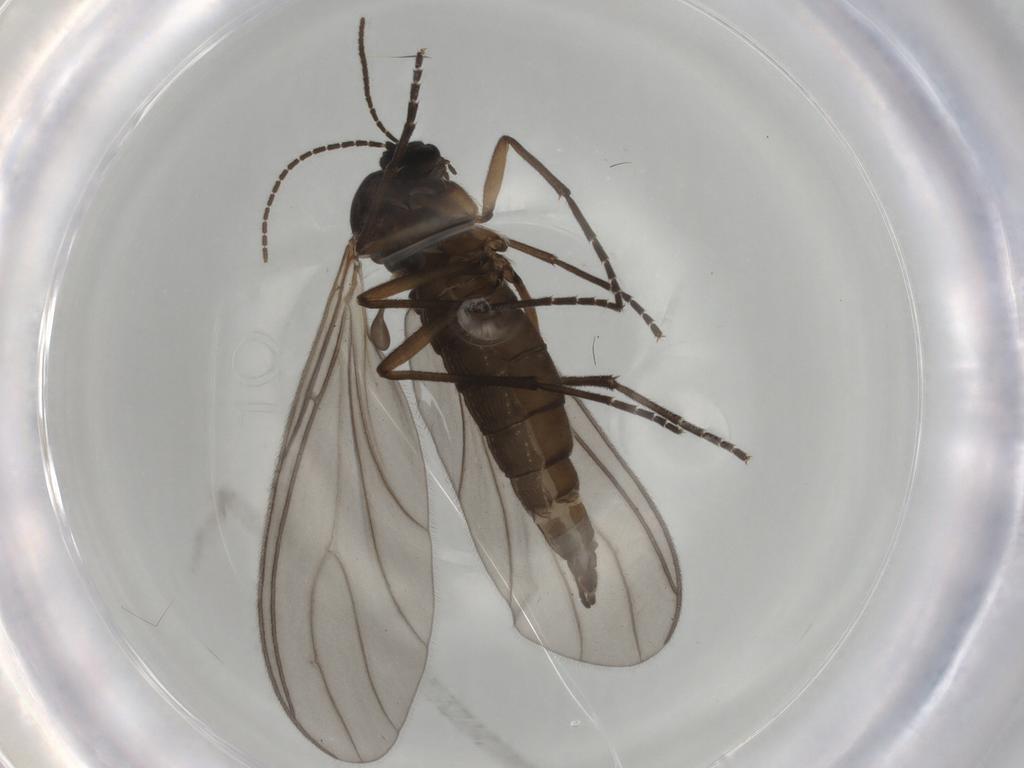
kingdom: Animalia
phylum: Arthropoda
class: Insecta
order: Diptera
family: Sciaridae
